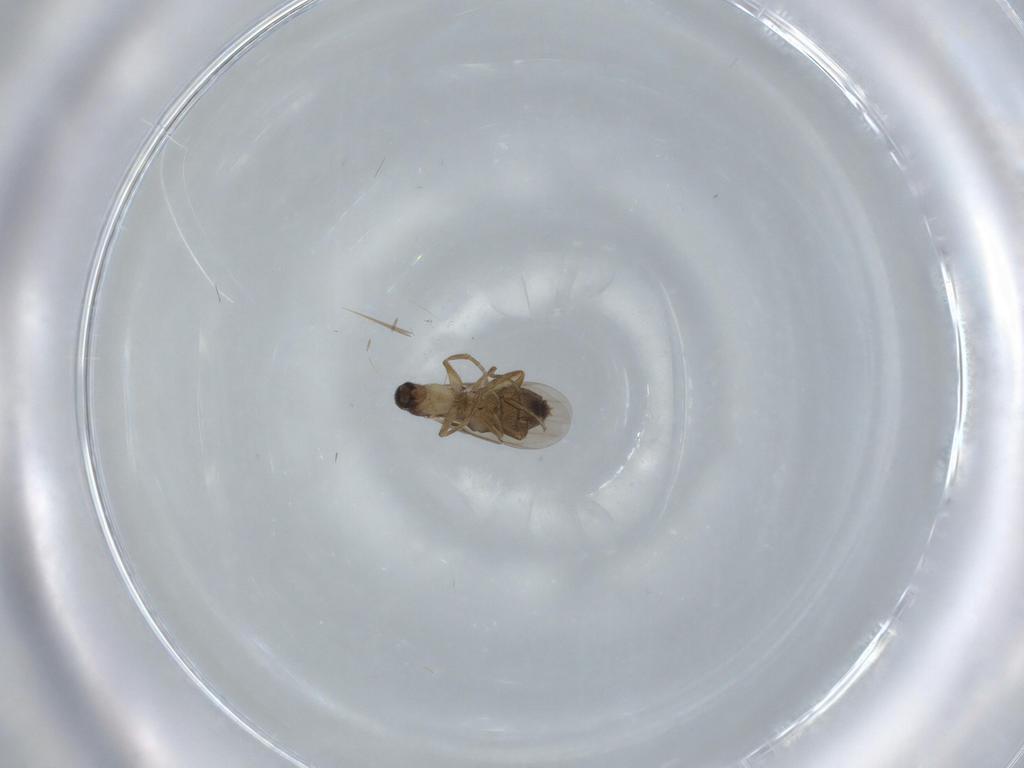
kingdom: Animalia
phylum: Arthropoda
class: Insecta
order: Diptera
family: Phoridae
